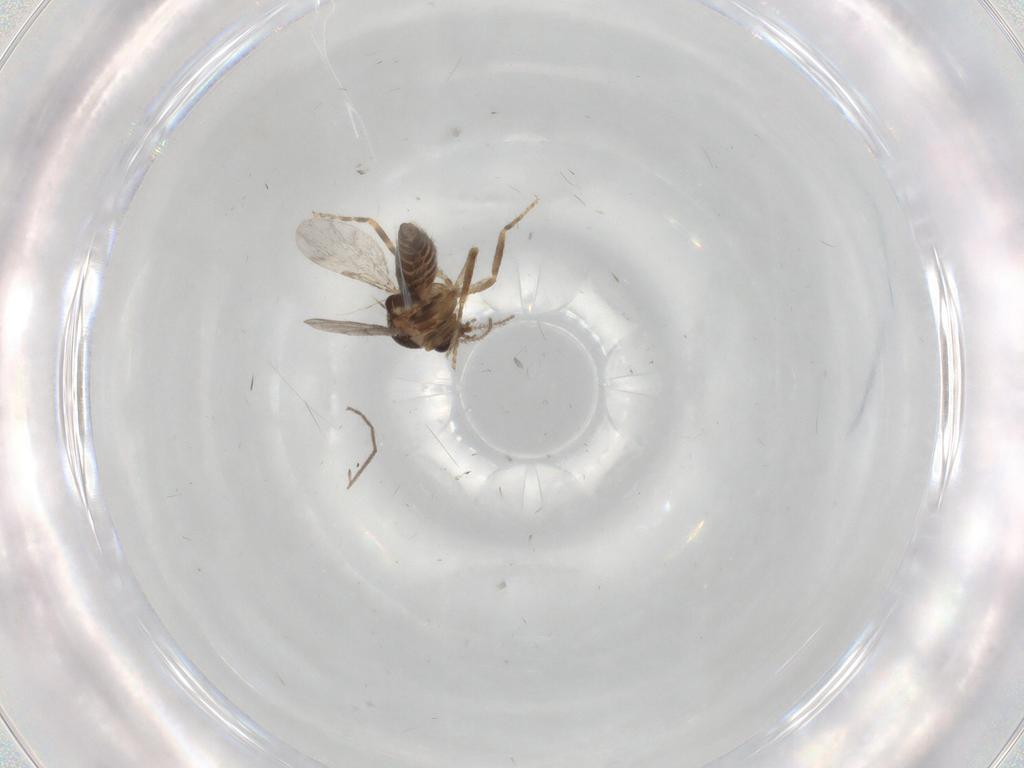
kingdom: Animalia
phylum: Arthropoda
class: Insecta
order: Diptera
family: Ceratopogonidae
